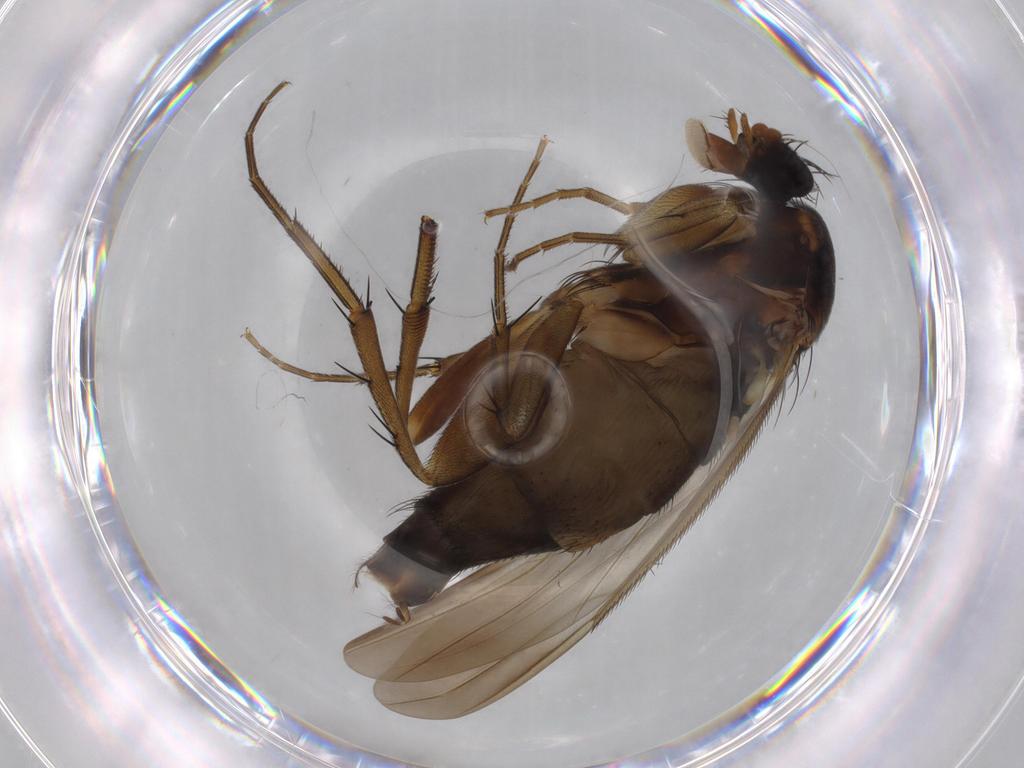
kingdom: Animalia
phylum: Arthropoda
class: Insecta
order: Diptera
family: Phoridae
